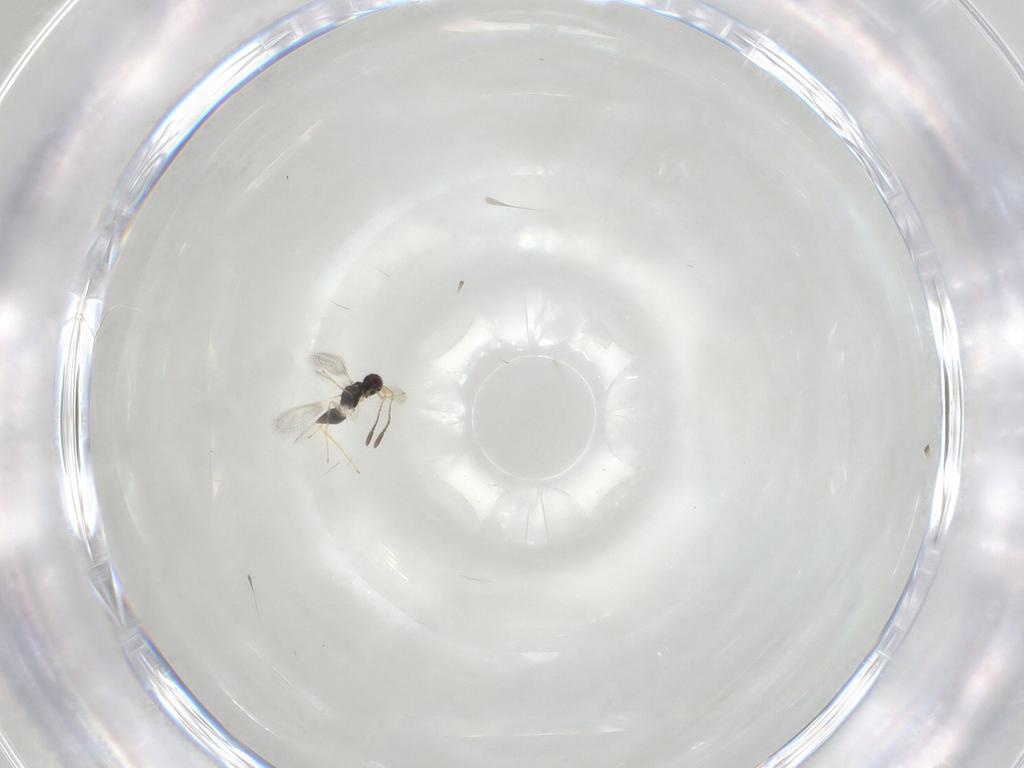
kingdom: Animalia
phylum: Arthropoda
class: Insecta
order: Hymenoptera
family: Mymaridae
